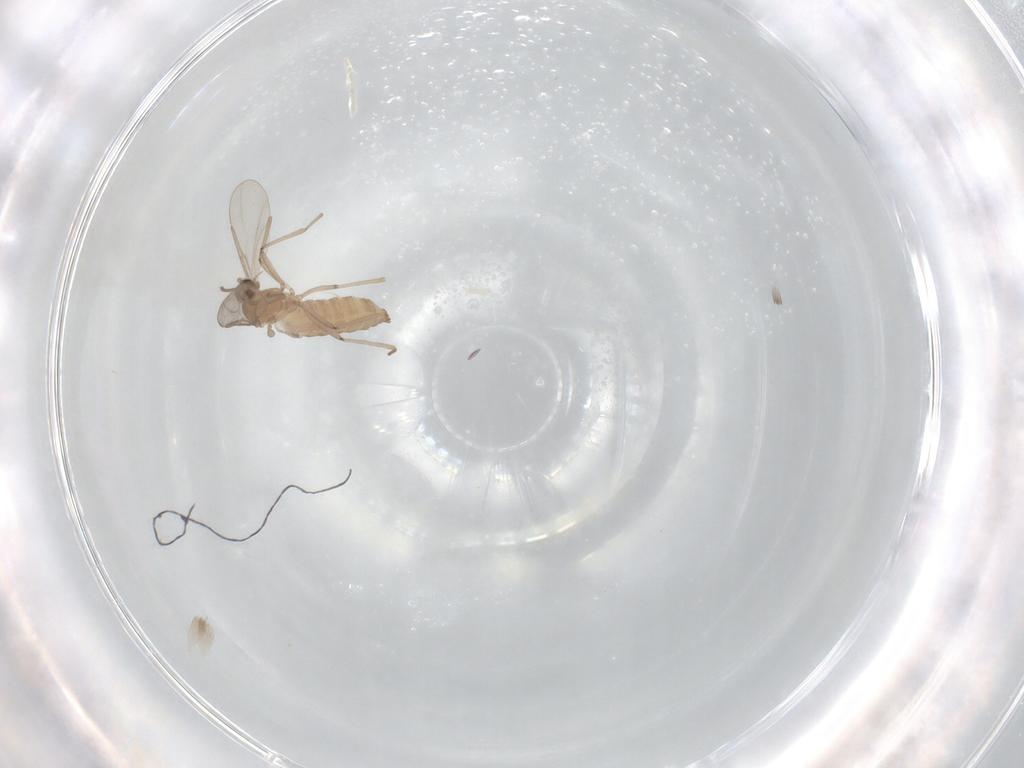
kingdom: Animalia
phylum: Arthropoda
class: Insecta
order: Diptera
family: Cecidomyiidae
